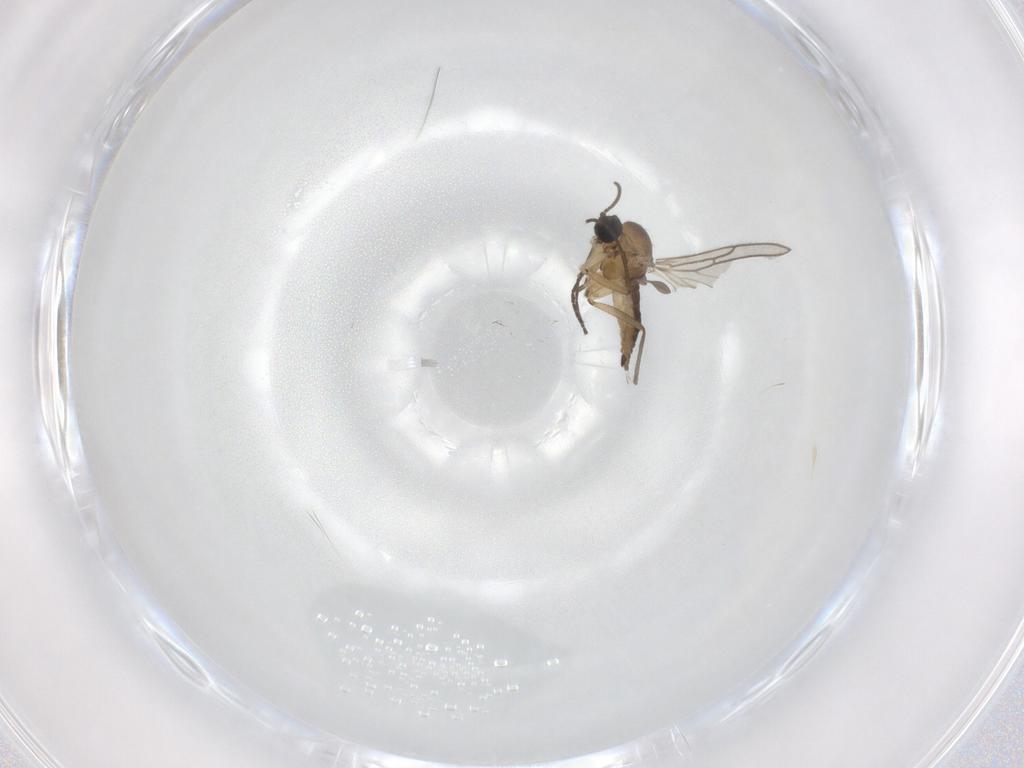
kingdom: Animalia
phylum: Arthropoda
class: Insecta
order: Diptera
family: Sciaridae
